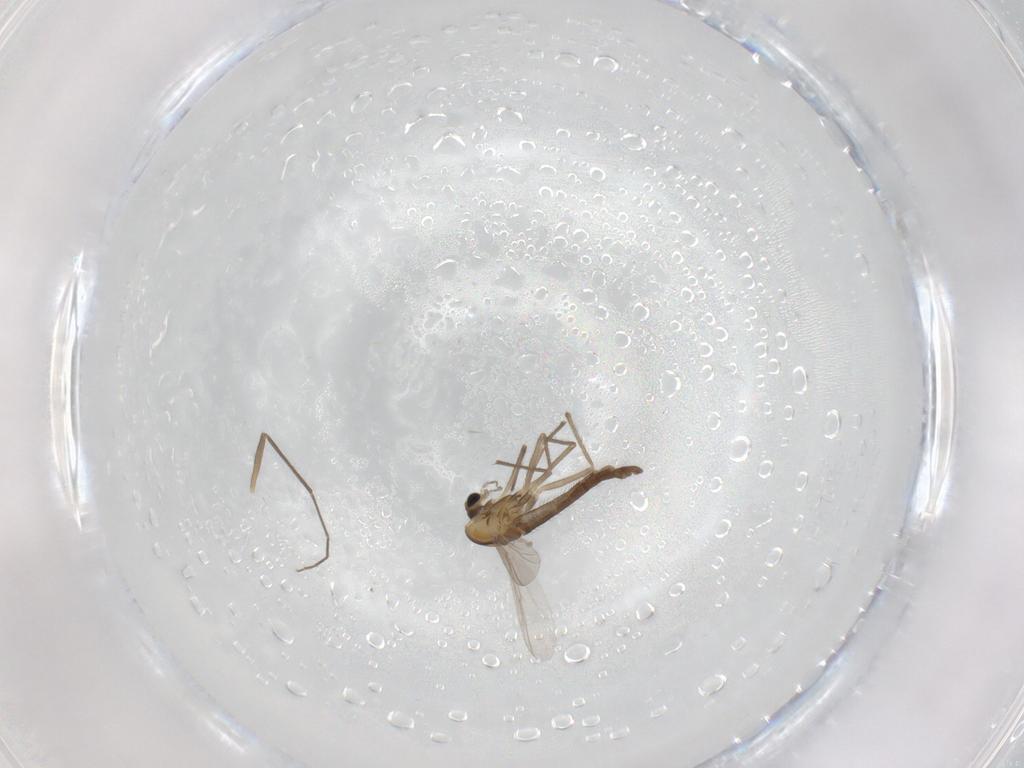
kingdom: Animalia
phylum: Arthropoda
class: Insecta
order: Diptera
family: Chironomidae
